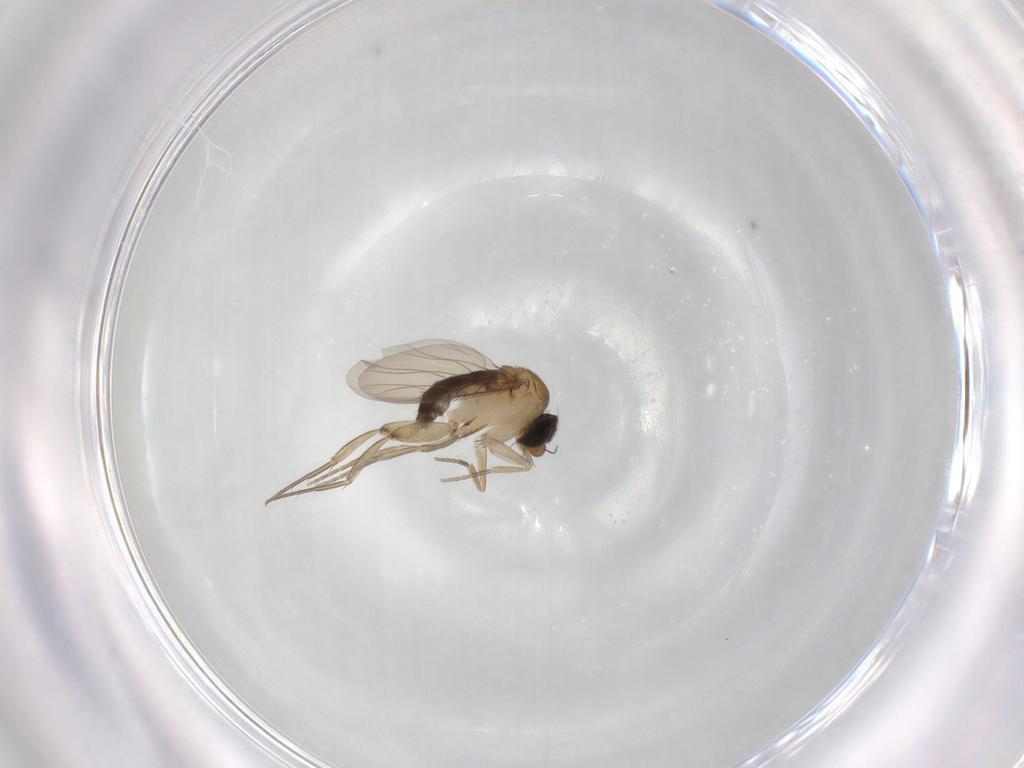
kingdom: Animalia
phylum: Arthropoda
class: Insecta
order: Diptera
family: Phoridae
